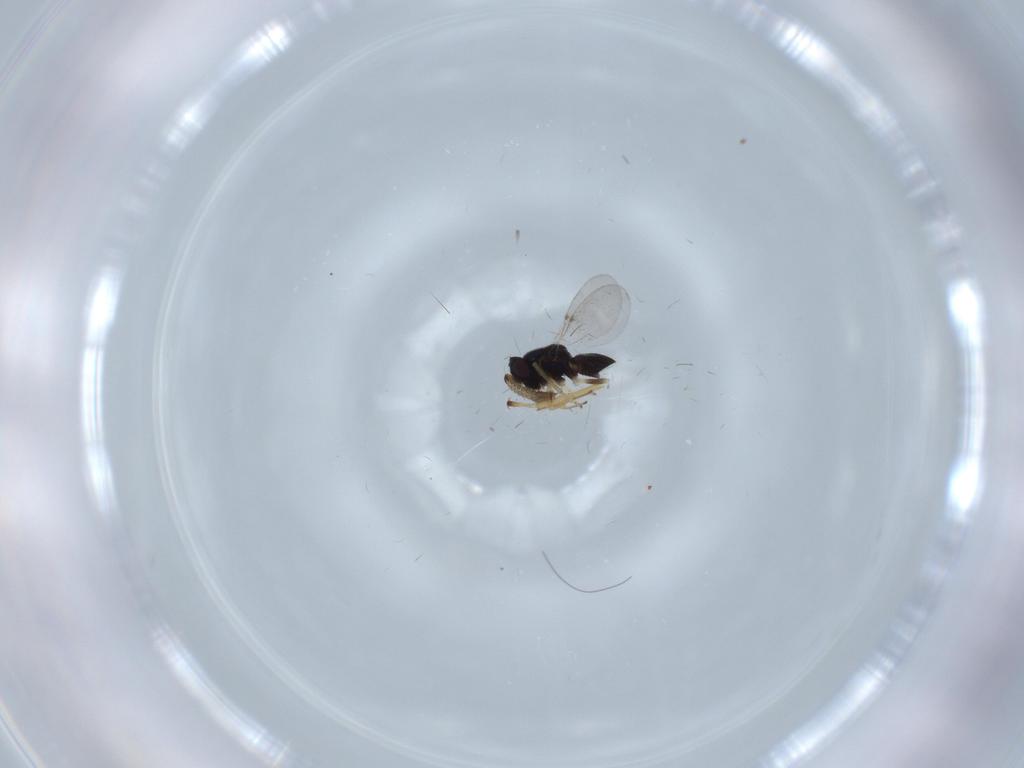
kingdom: Animalia
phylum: Arthropoda
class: Insecta
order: Hymenoptera
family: Encyrtidae
